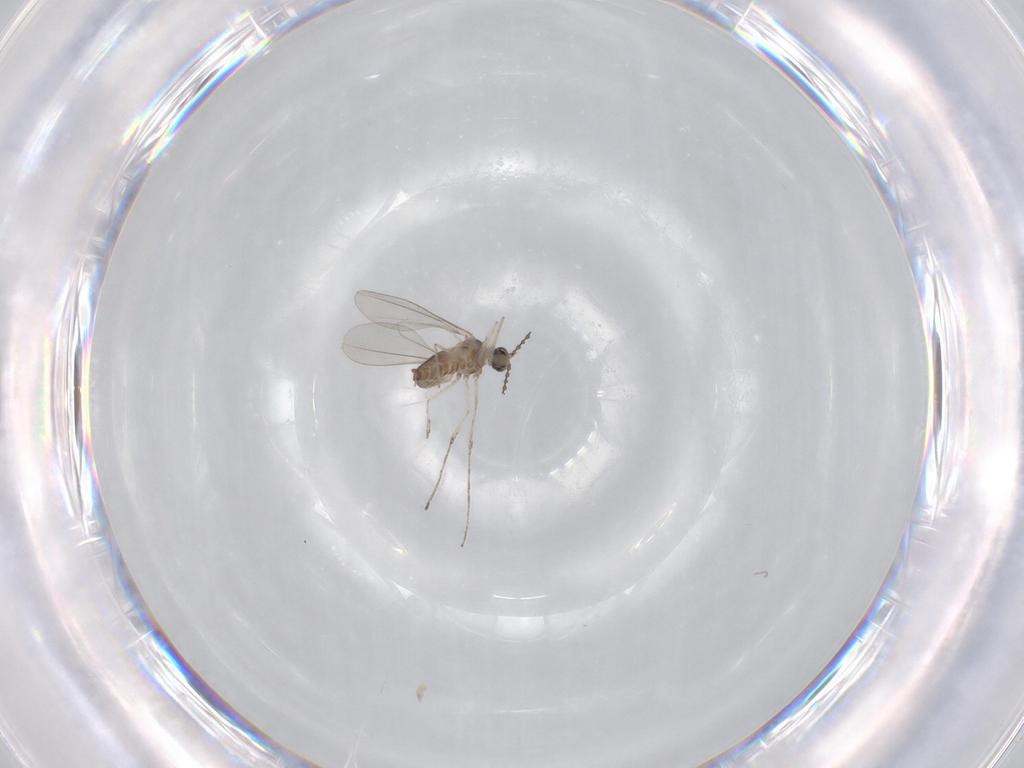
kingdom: Animalia
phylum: Arthropoda
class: Insecta
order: Diptera
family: Cecidomyiidae
